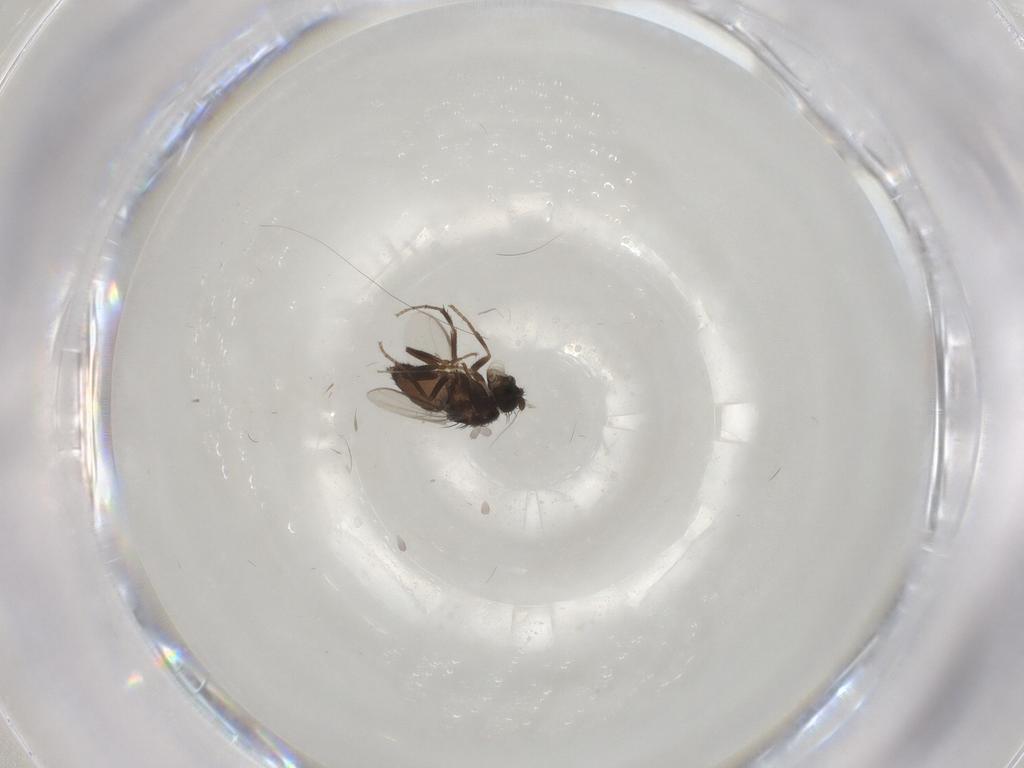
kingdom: Animalia
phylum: Arthropoda
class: Insecta
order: Diptera
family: Sphaeroceridae
